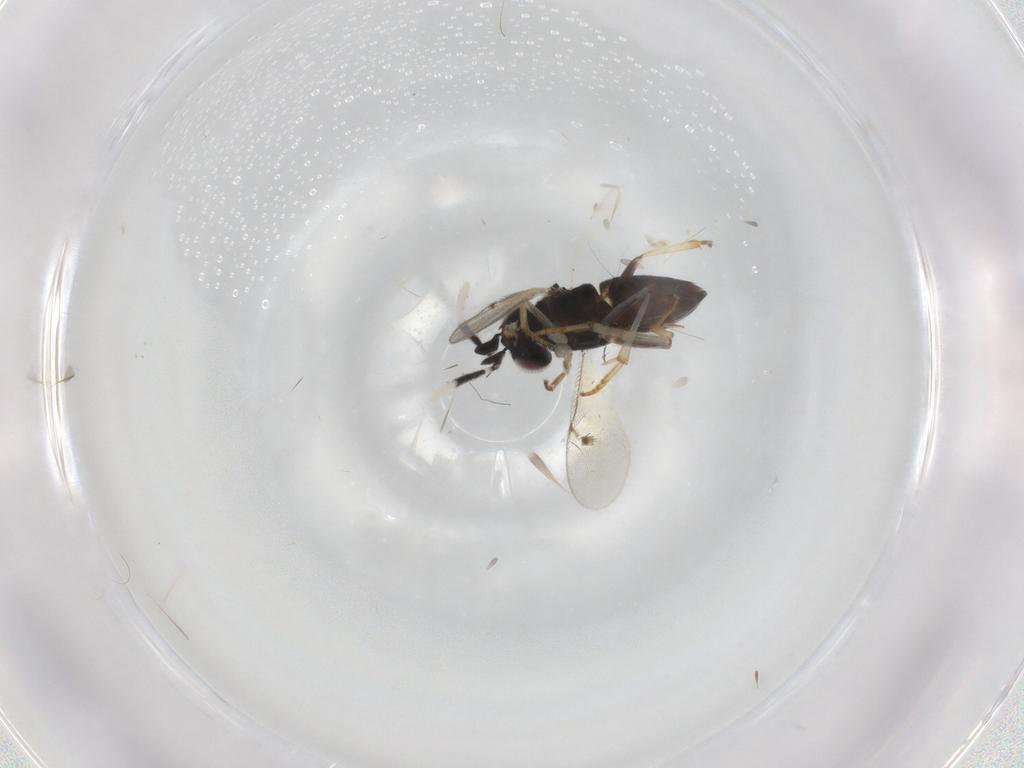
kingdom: Animalia
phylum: Arthropoda
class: Insecta
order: Hymenoptera
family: Encyrtidae
